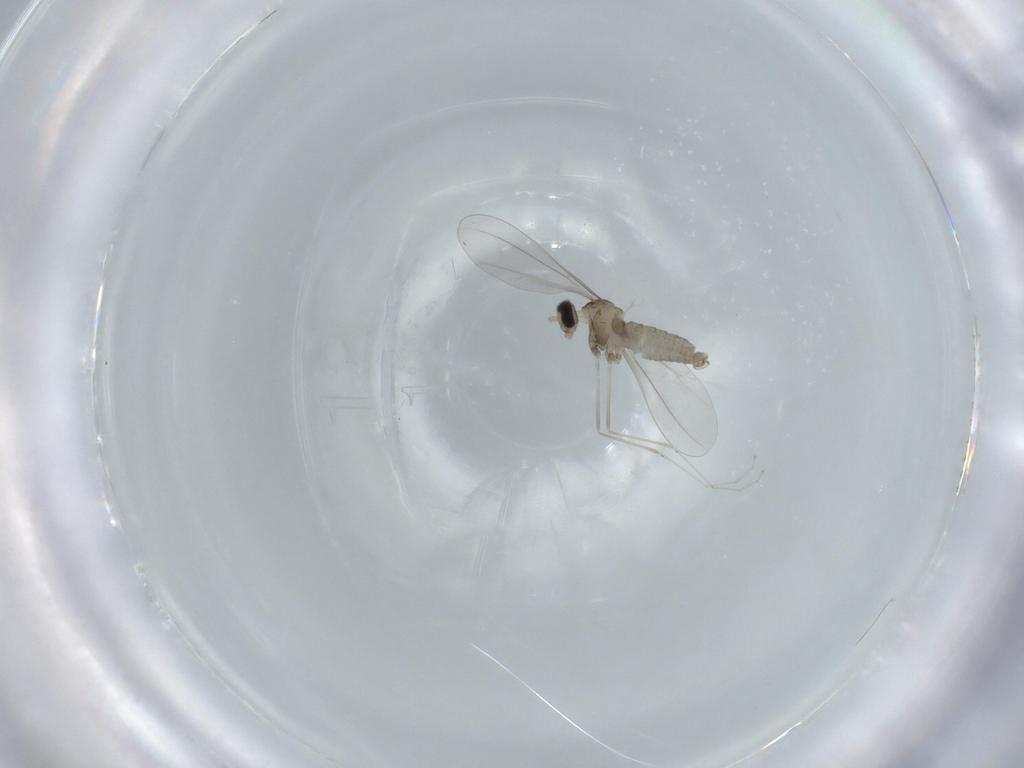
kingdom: Animalia
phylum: Arthropoda
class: Insecta
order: Diptera
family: Cecidomyiidae
